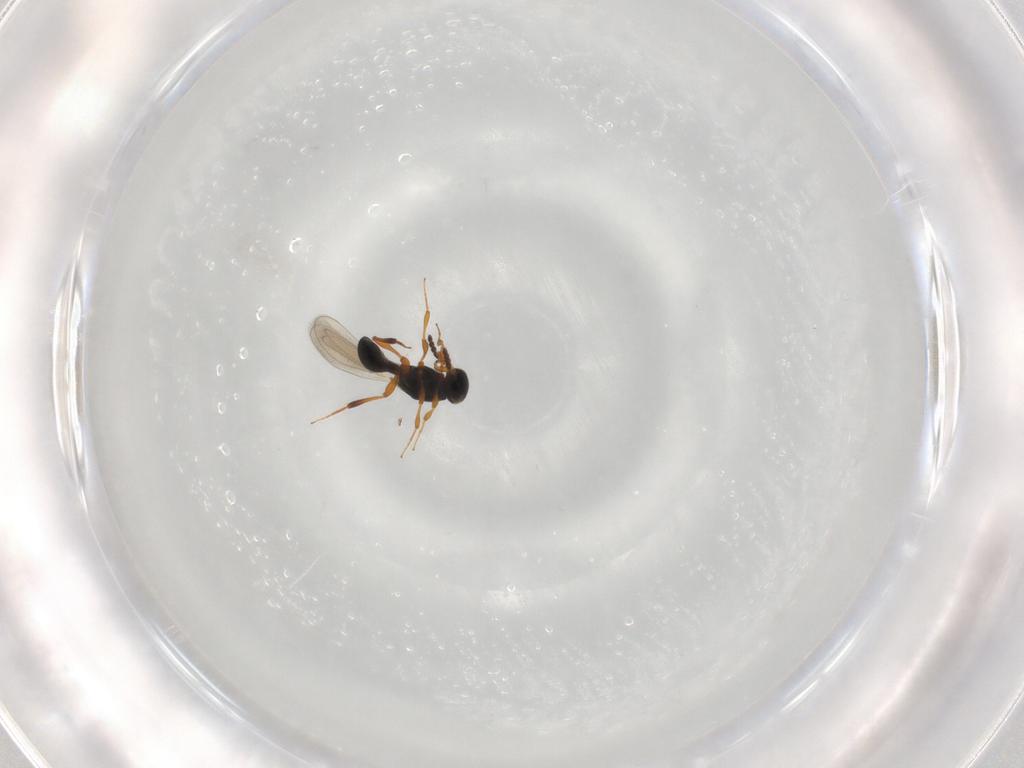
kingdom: Animalia
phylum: Arthropoda
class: Insecta
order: Hymenoptera
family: Platygastridae
